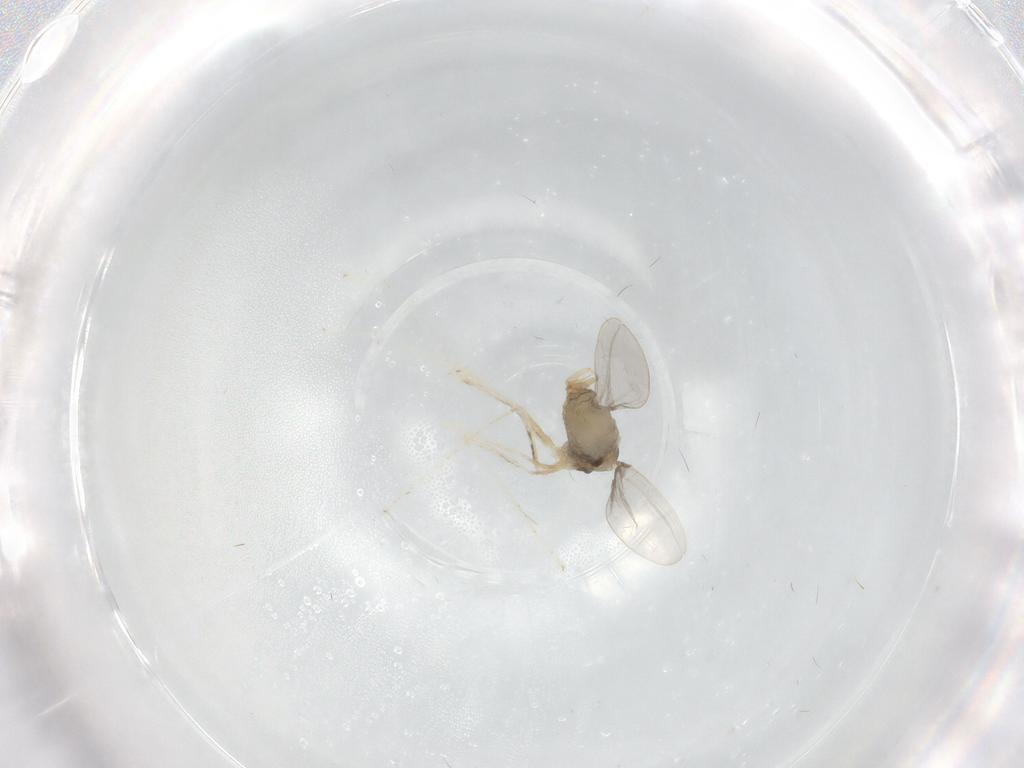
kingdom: Animalia
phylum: Arthropoda
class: Insecta
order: Diptera
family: Cecidomyiidae
